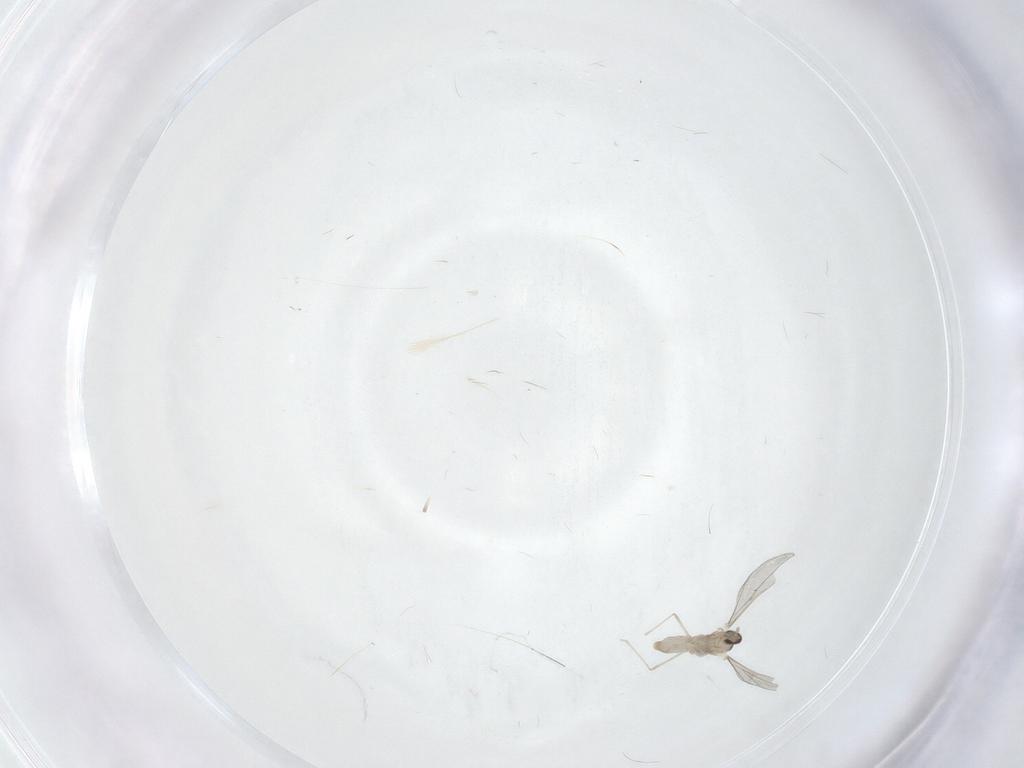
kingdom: Animalia
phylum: Arthropoda
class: Insecta
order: Diptera
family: Cecidomyiidae
